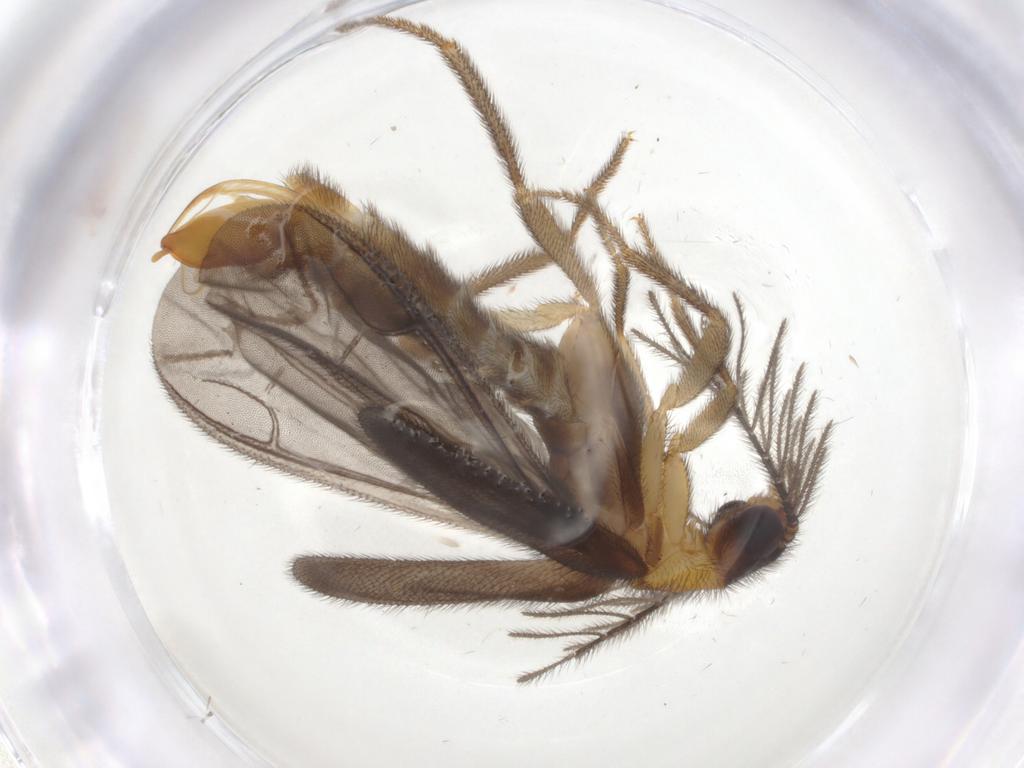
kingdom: Animalia
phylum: Arthropoda
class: Insecta
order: Coleoptera
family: Phengodidae
